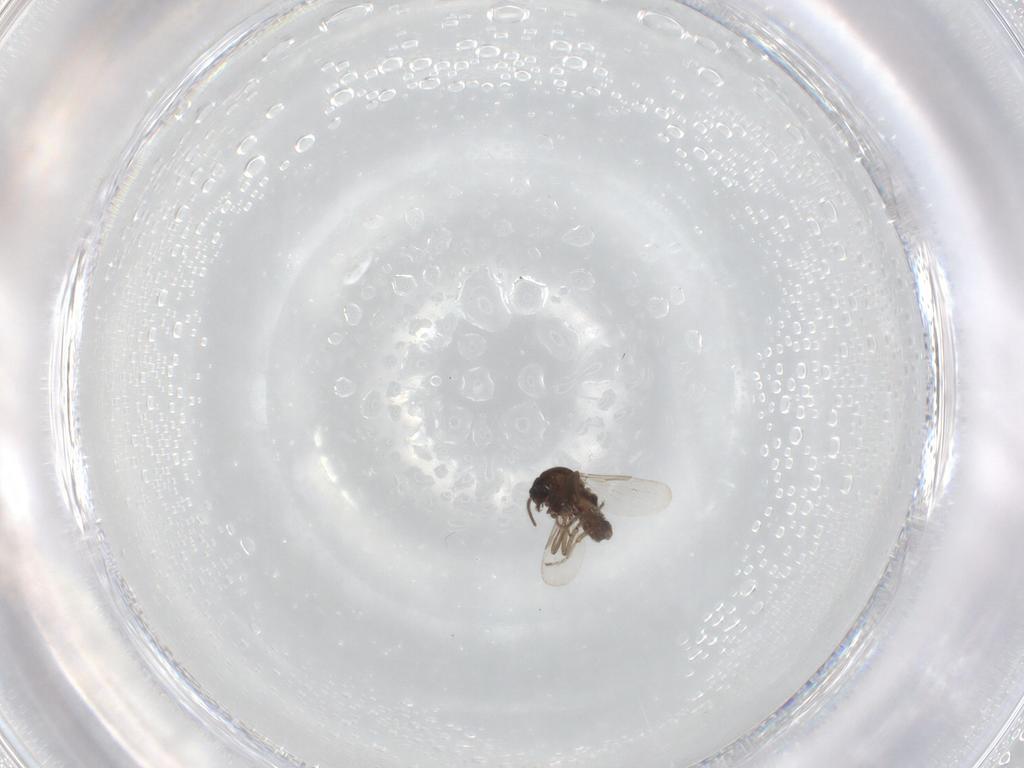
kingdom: Animalia
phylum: Arthropoda
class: Insecta
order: Diptera
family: Ceratopogonidae
